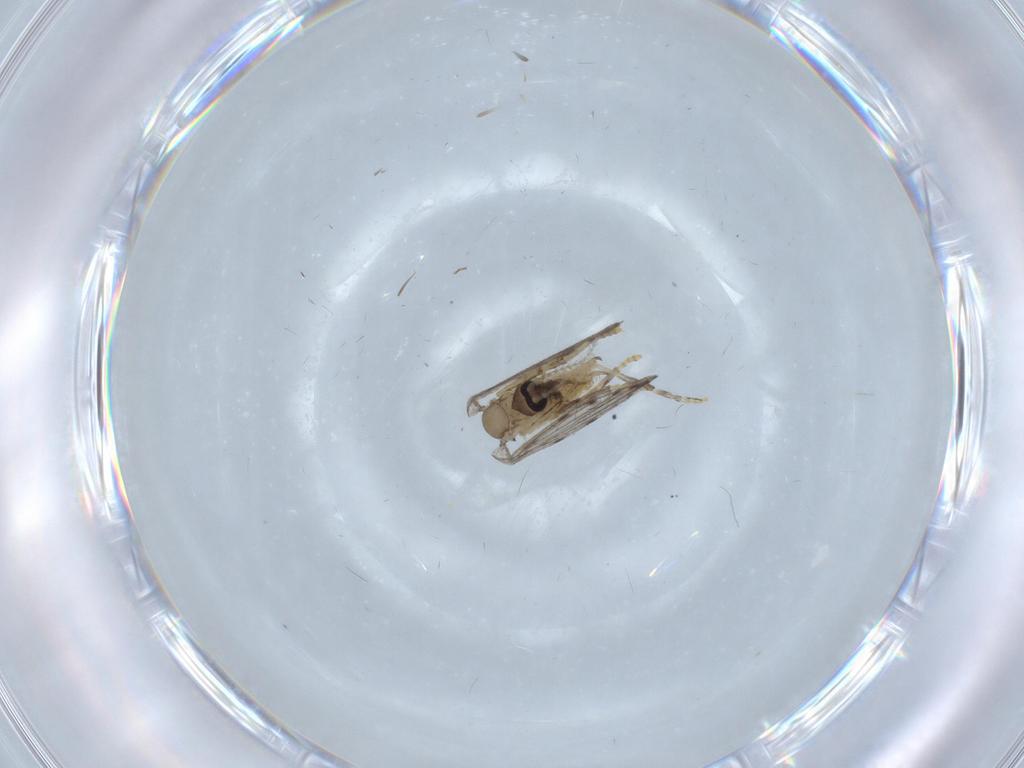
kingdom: Animalia
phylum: Arthropoda
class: Insecta
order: Diptera
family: Psychodidae
